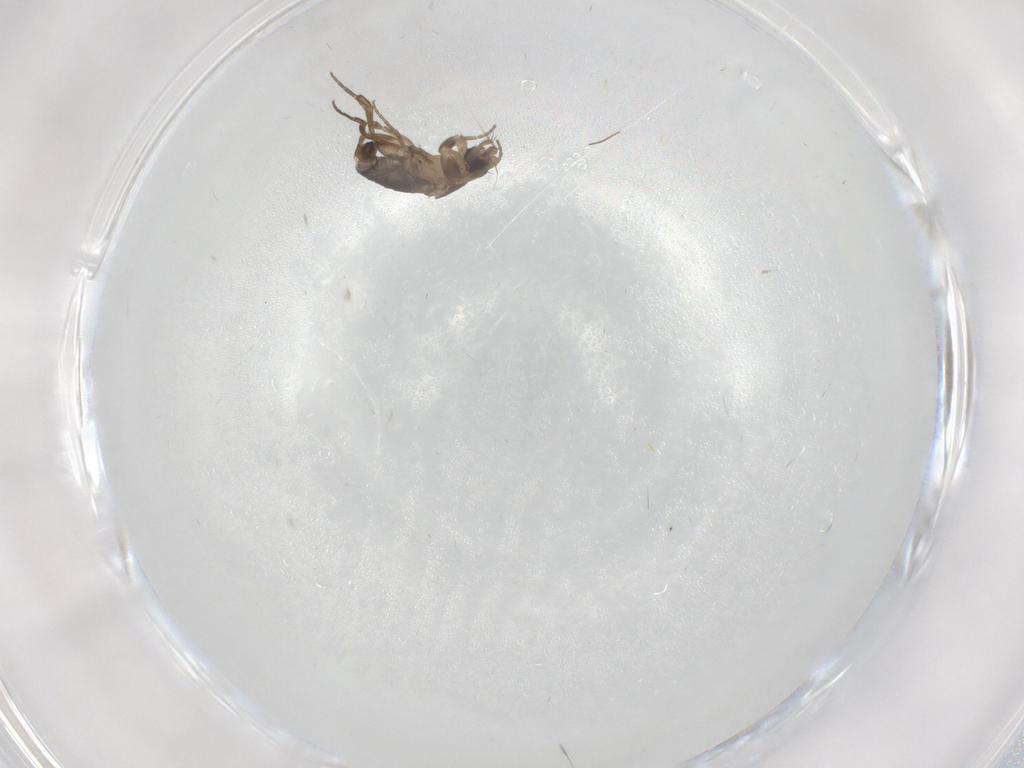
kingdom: Animalia
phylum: Arthropoda
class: Insecta
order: Diptera
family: Phoridae
